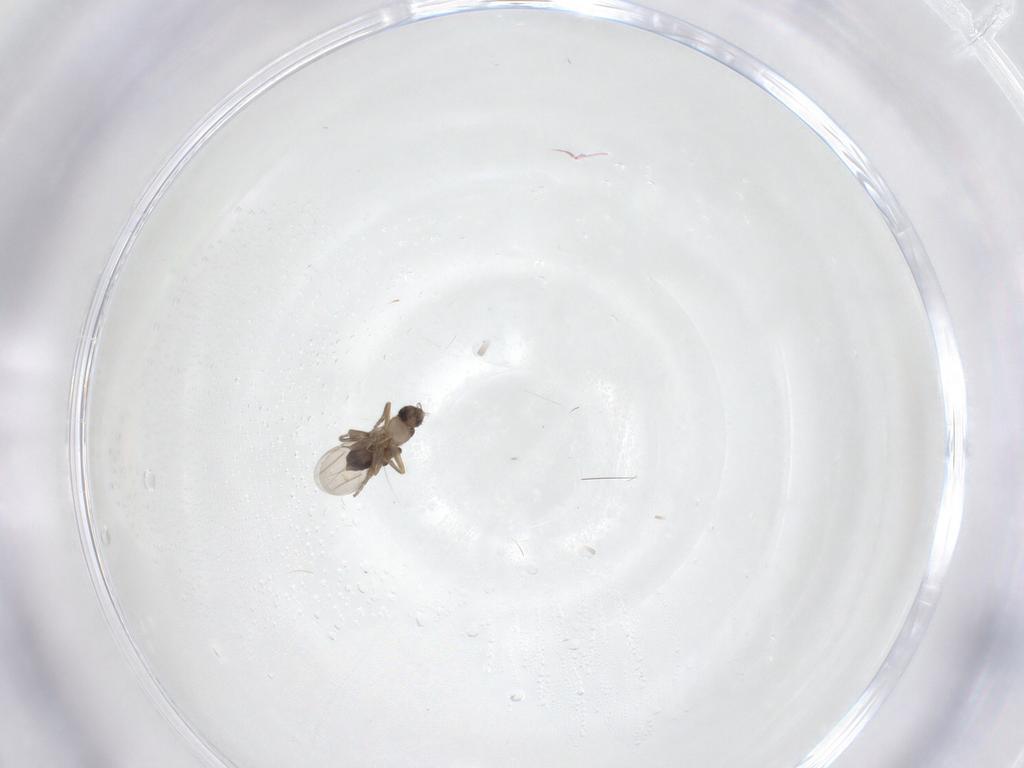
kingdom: Animalia
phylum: Arthropoda
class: Insecta
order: Diptera
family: Phoridae
